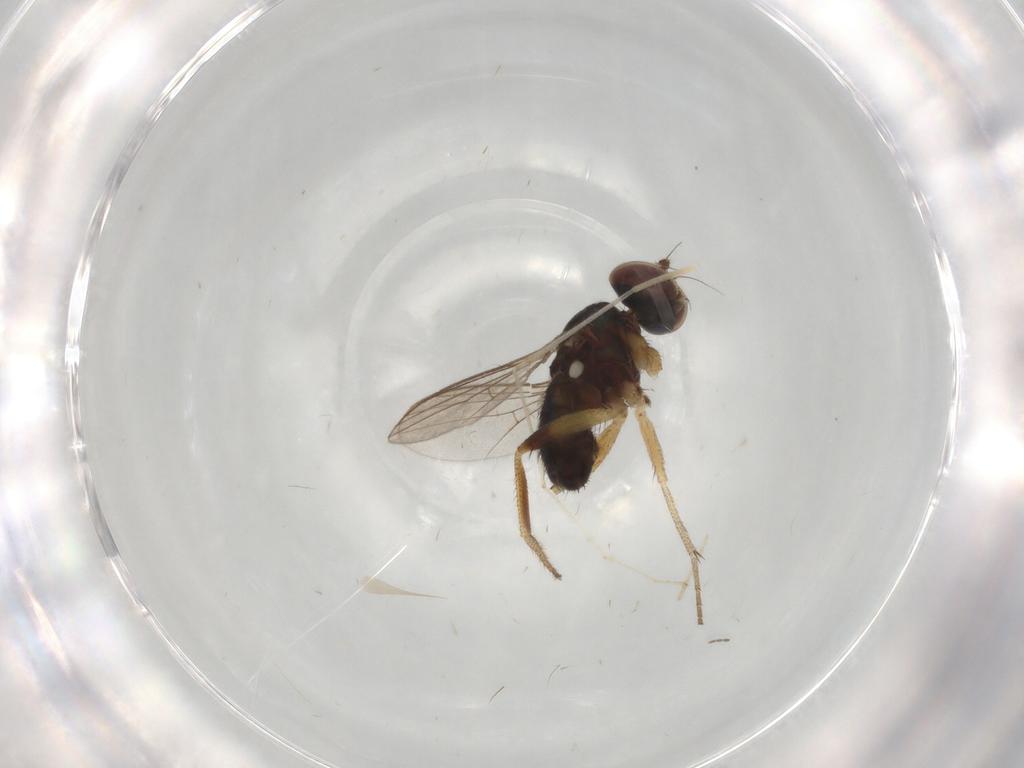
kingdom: Animalia
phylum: Arthropoda
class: Insecta
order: Diptera
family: Cecidomyiidae
